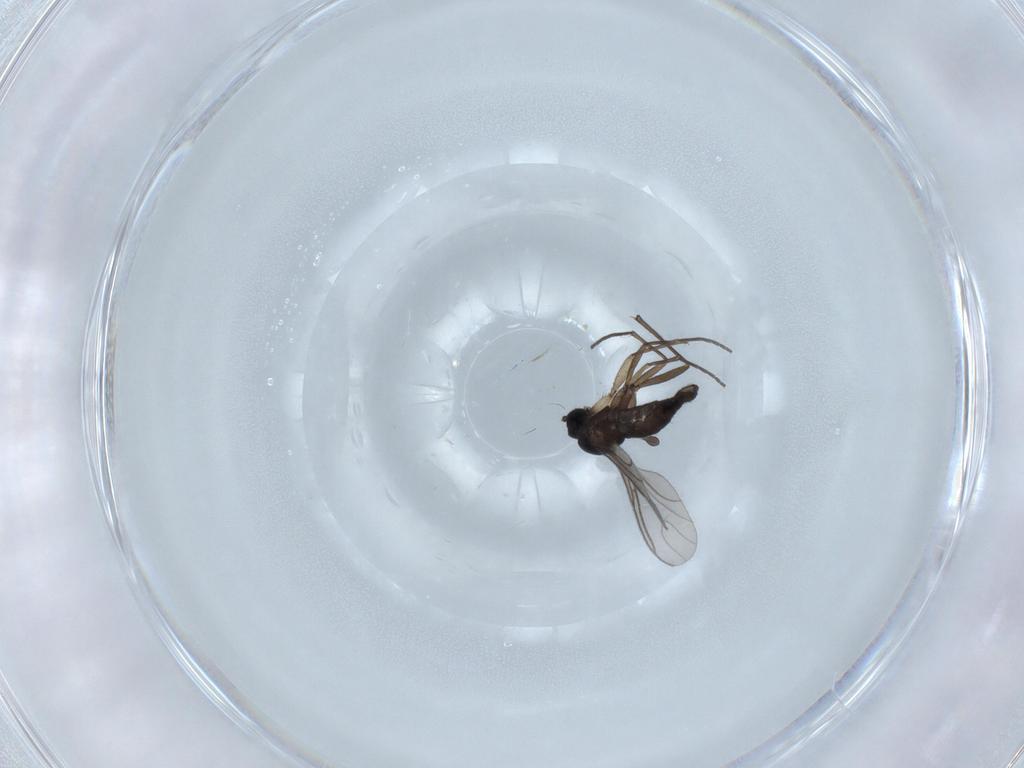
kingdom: Animalia
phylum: Arthropoda
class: Insecta
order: Diptera
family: Sciaridae
